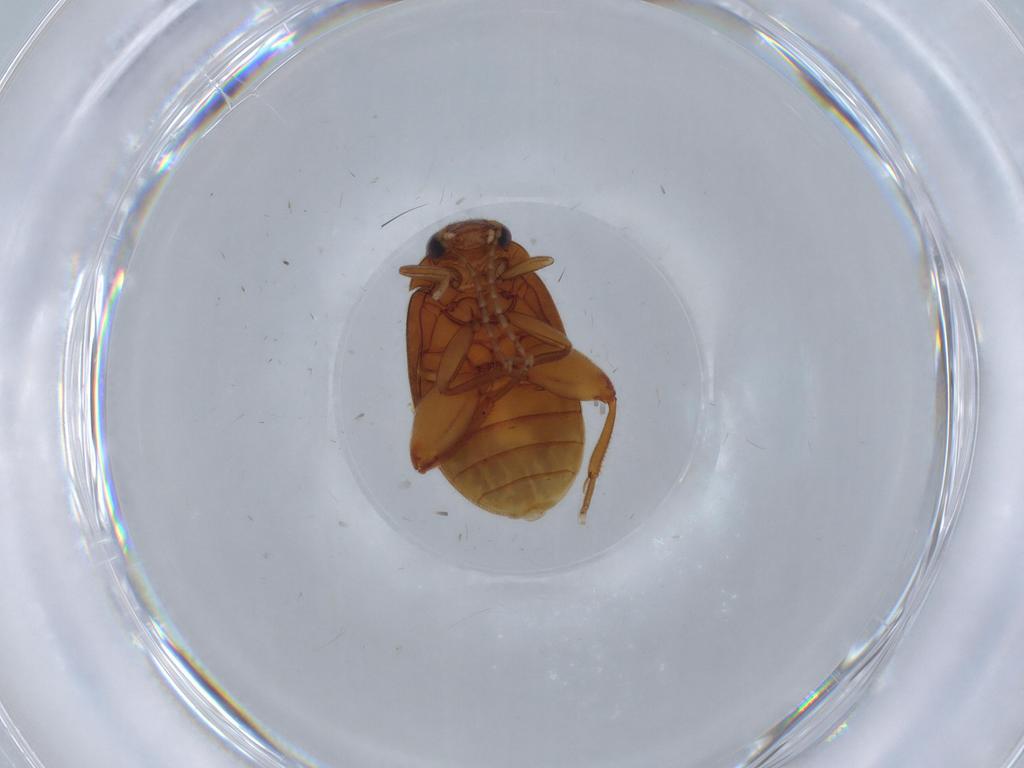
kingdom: Animalia
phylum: Arthropoda
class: Insecta
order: Coleoptera
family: Scirtidae
